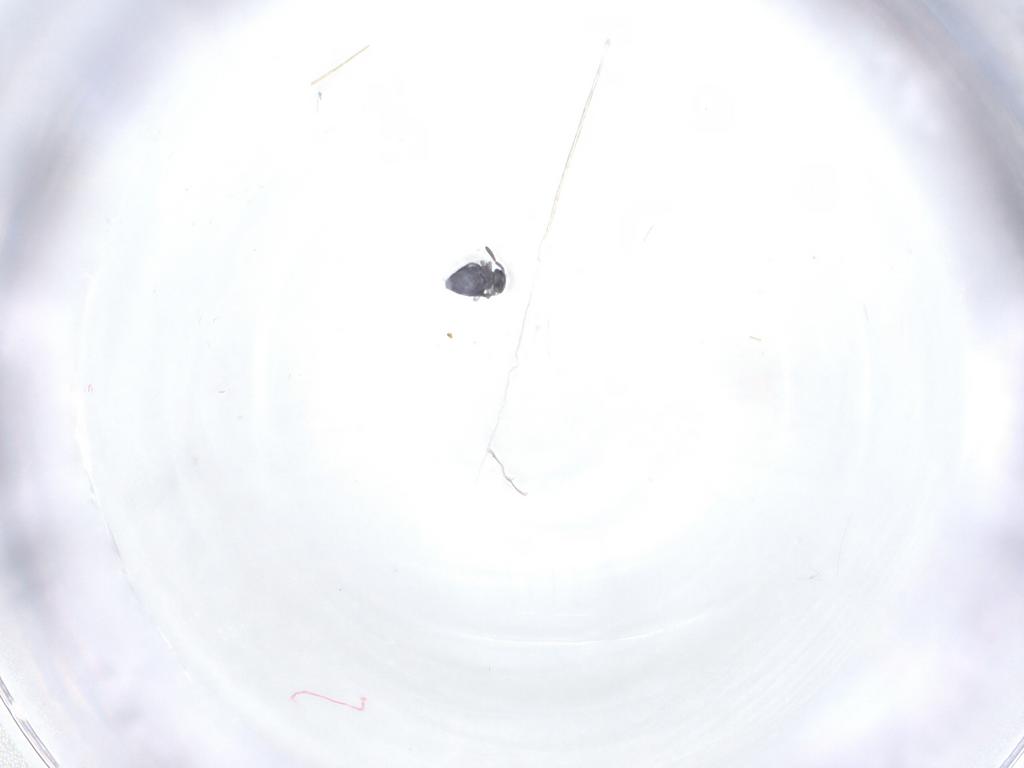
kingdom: Animalia
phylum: Arthropoda
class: Collembola
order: Symphypleona
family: Katiannidae
